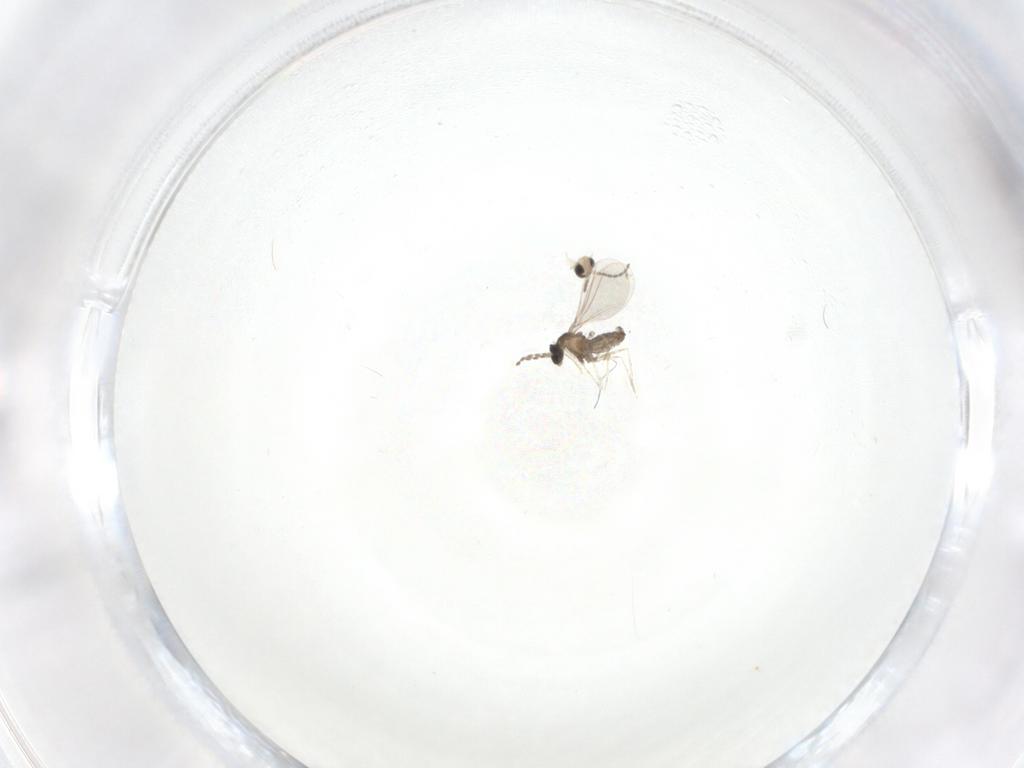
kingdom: Animalia
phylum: Arthropoda
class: Insecta
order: Diptera
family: Cecidomyiidae
